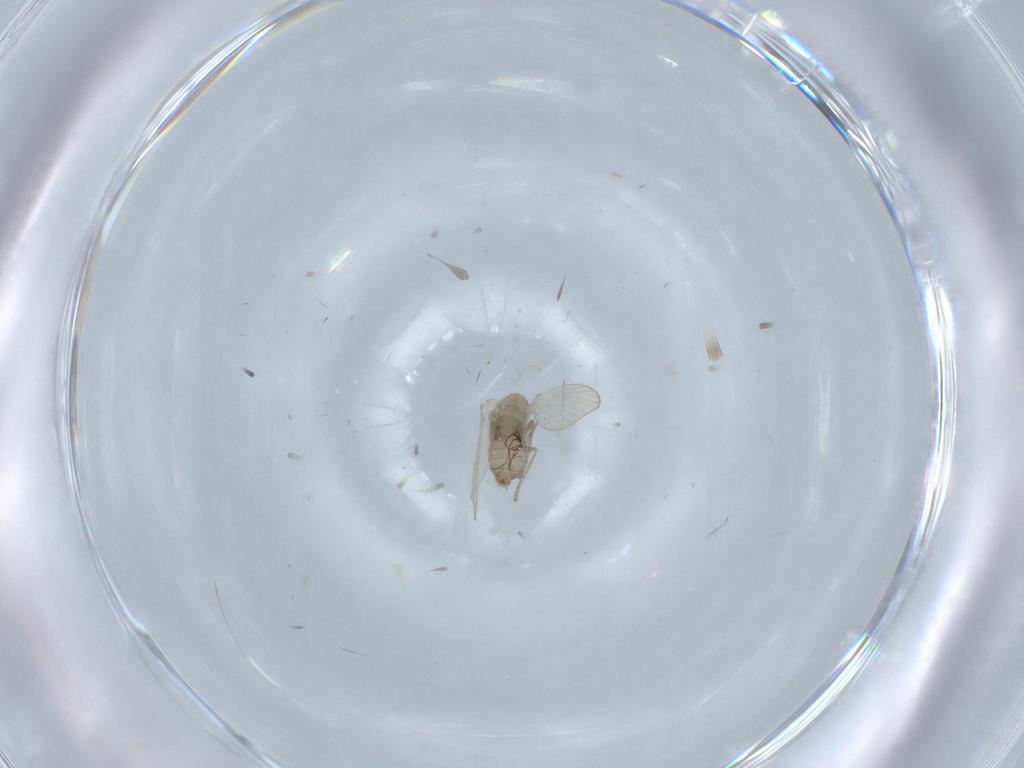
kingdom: Animalia
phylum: Arthropoda
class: Insecta
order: Diptera
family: Psychodidae
